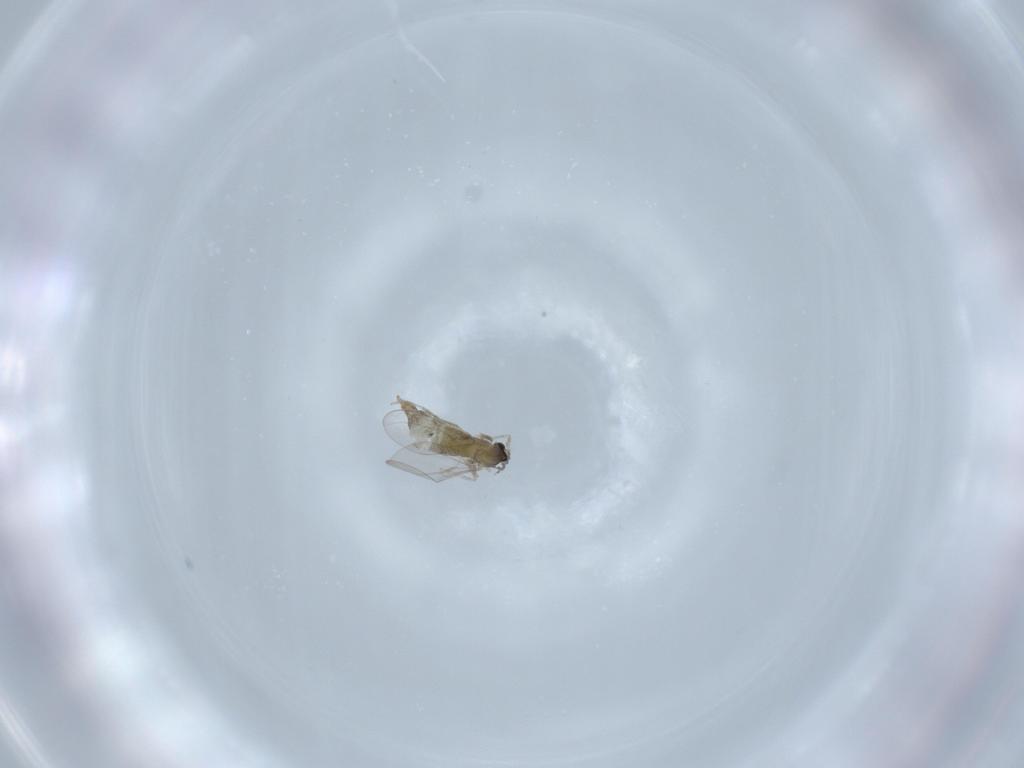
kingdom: Animalia
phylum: Arthropoda
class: Insecta
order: Diptera
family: Cecidomyiidae
